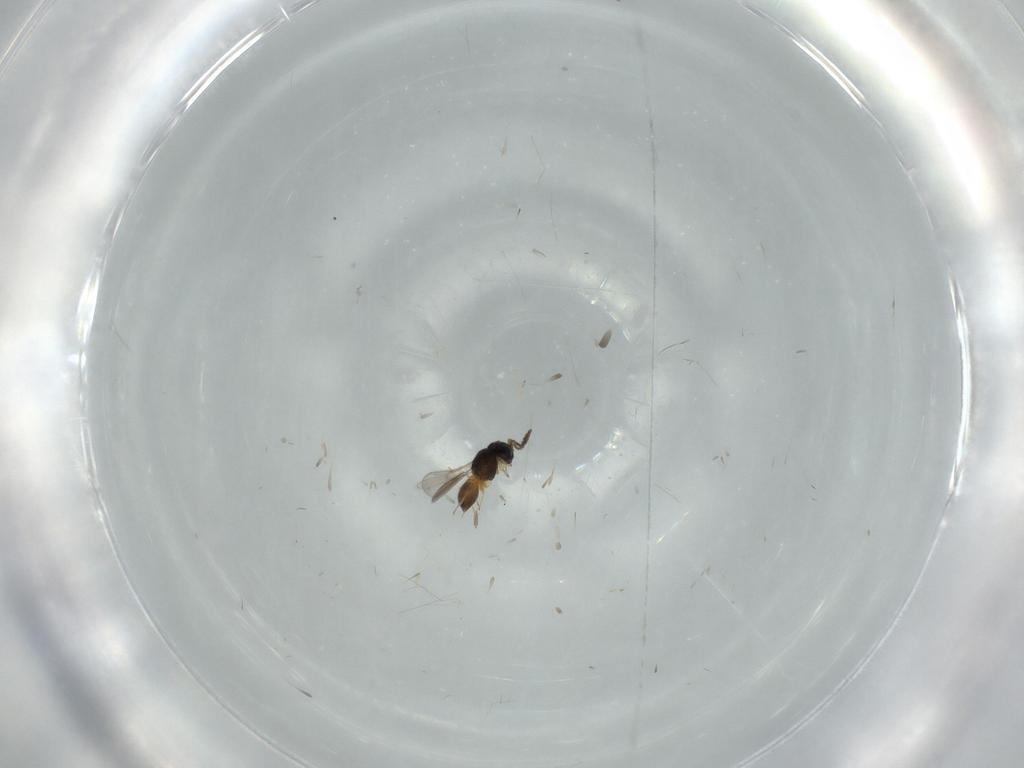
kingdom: Animalia
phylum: Arthropoda
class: Insecta
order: Hymenoptera
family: Scelionidae
